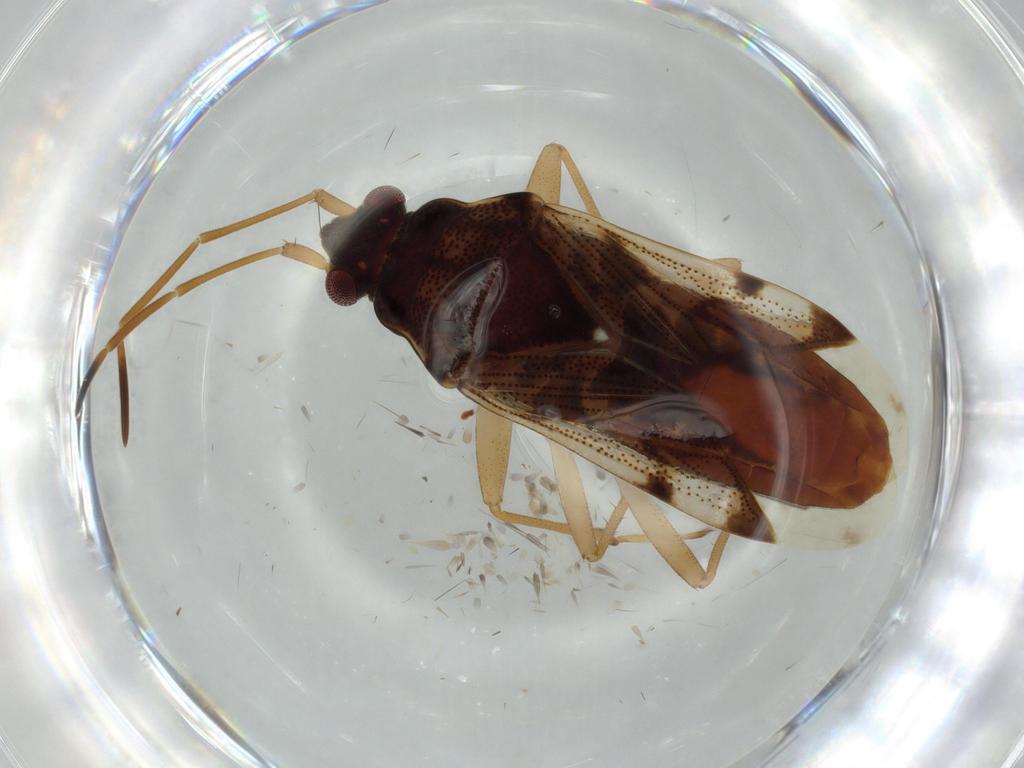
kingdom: Animalia
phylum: Arthropoda
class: Insecta
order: Hemiptera
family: Rhyparochromidae
